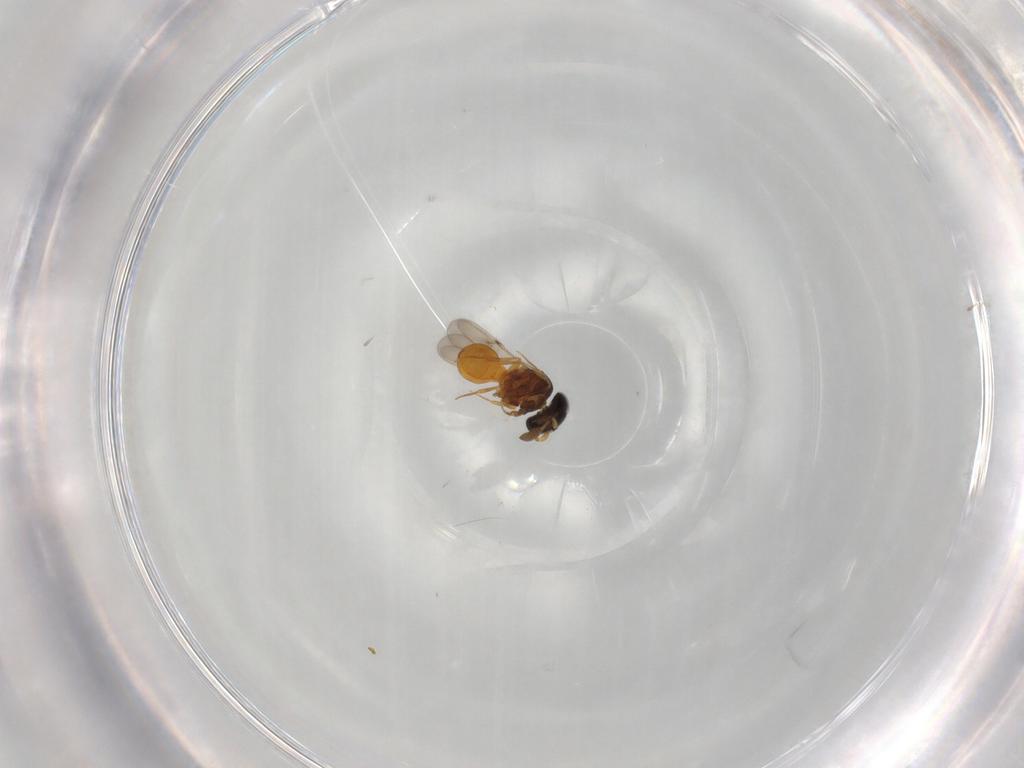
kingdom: Animalia
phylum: Arthropoda
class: Insecta
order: Hymenoptera
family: Scelionidae
